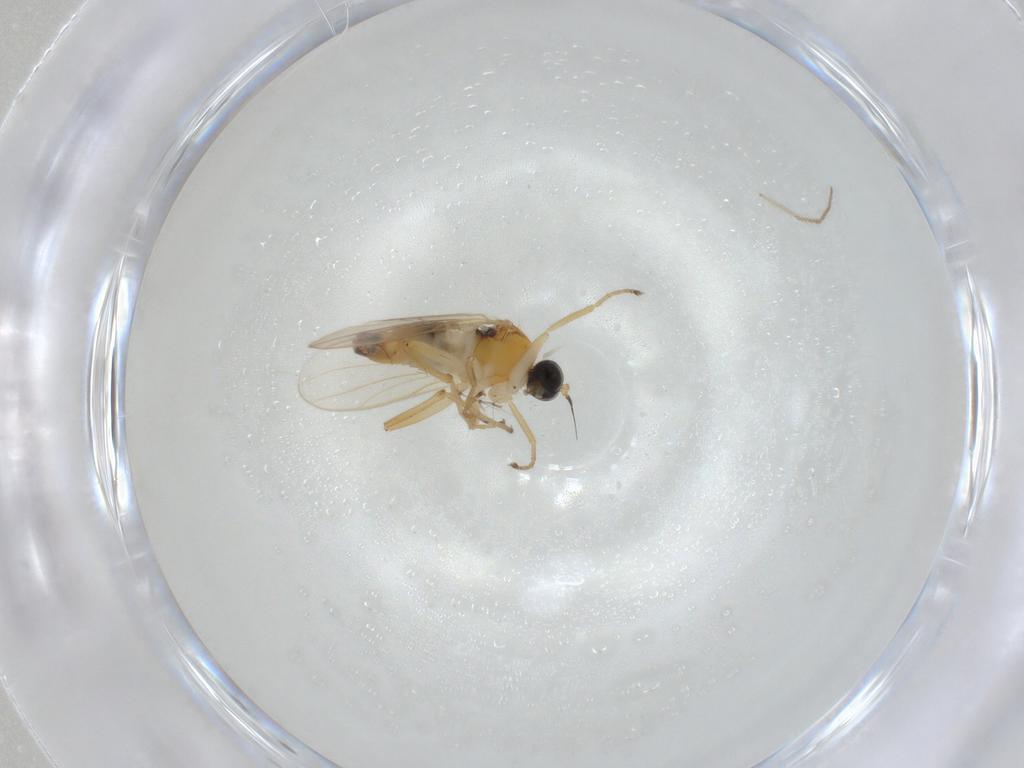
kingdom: Animalia
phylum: Arthropoda
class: Insecta
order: Diptera
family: Hybotidae
